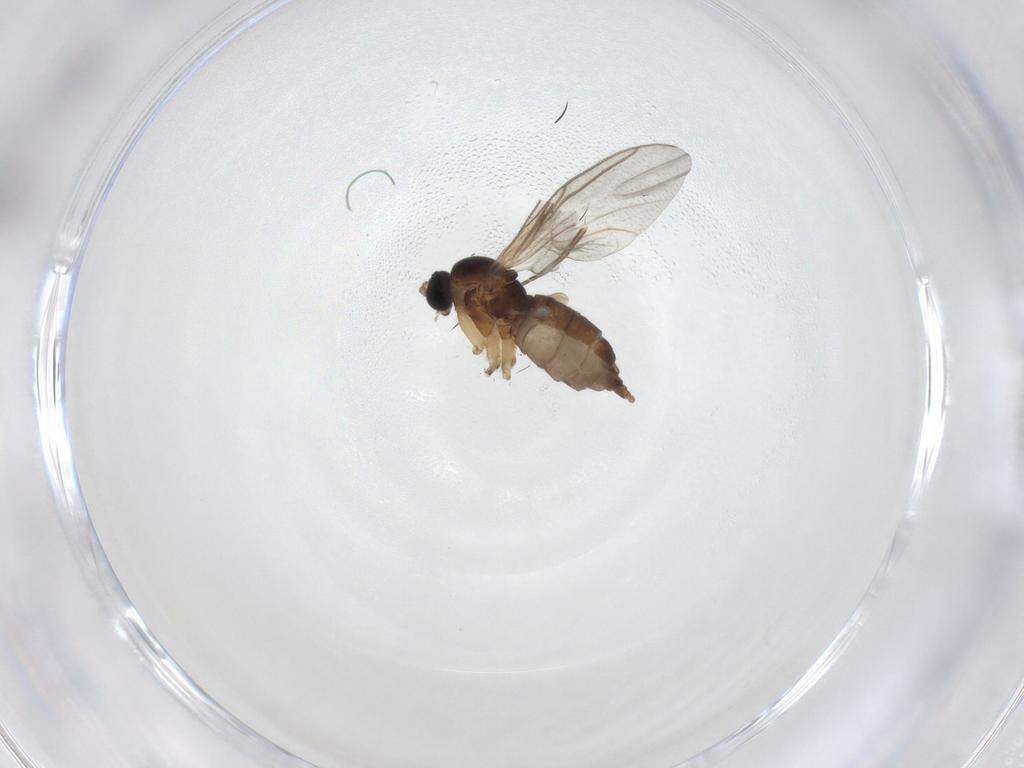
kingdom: Animalia
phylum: Arthropoda
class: Insecta
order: Diptera
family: Sciaridae
